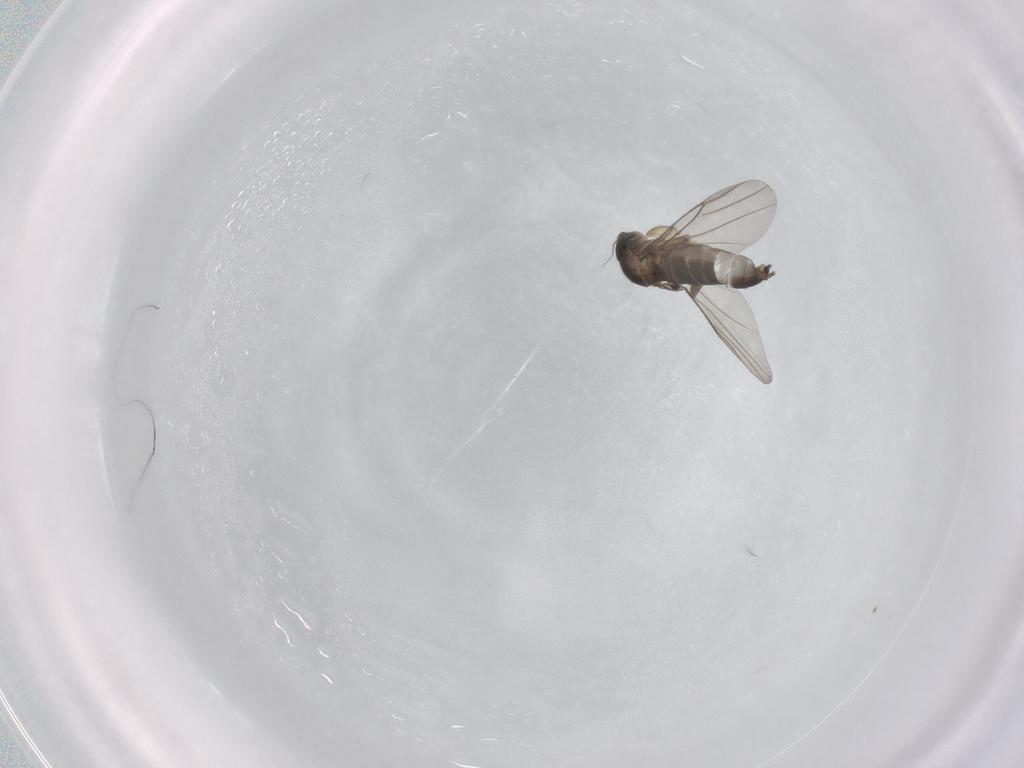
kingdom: Animalia
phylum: Arthropoda
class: Insecta
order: Diptera
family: Phoridae
